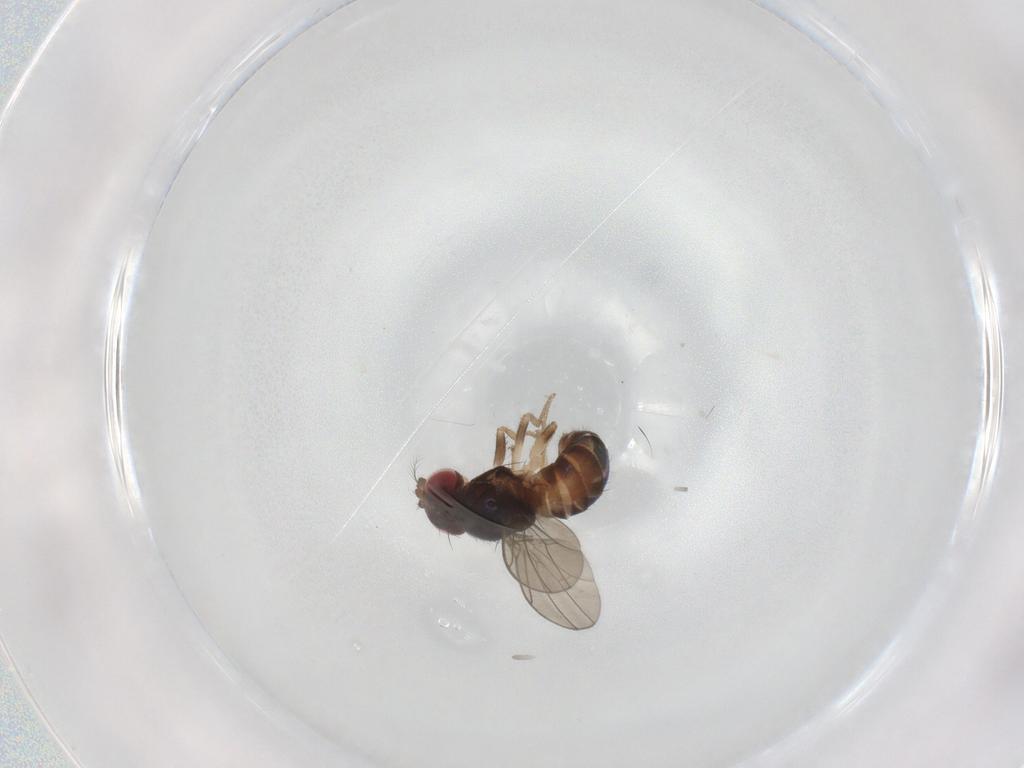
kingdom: Animalia
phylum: Arthropoda
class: Insecta
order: Diptera
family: Drosophilidae
